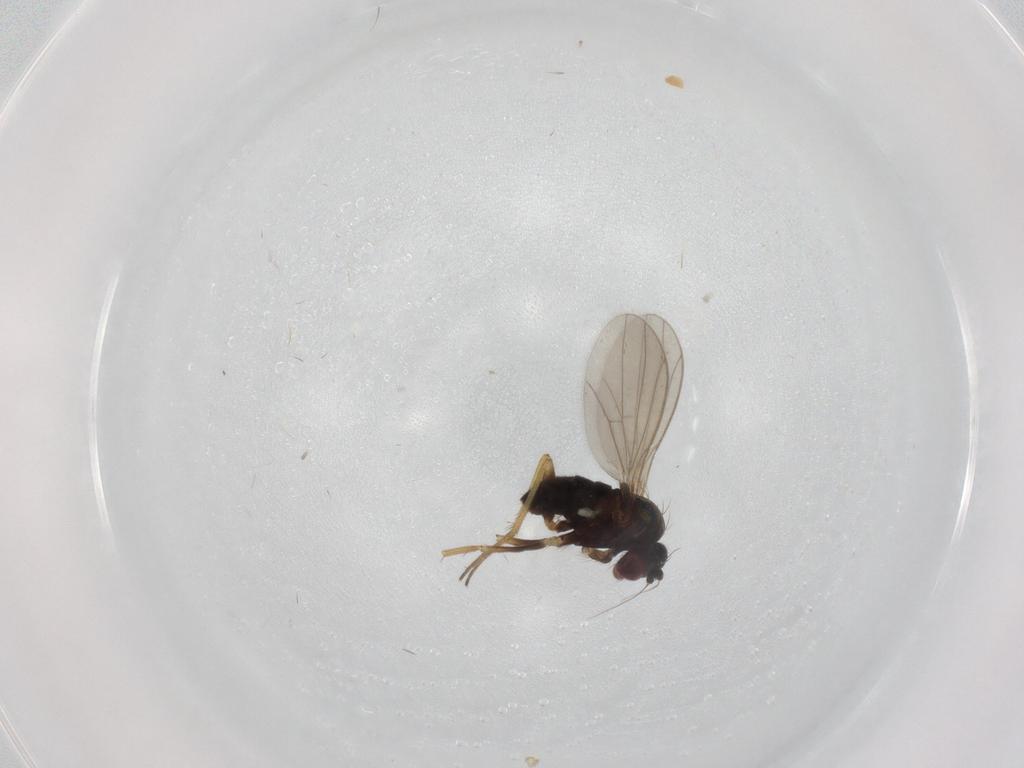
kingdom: Animalia
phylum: Arthropoda
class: Insecta
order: Diptera
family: Dolichopodidae
